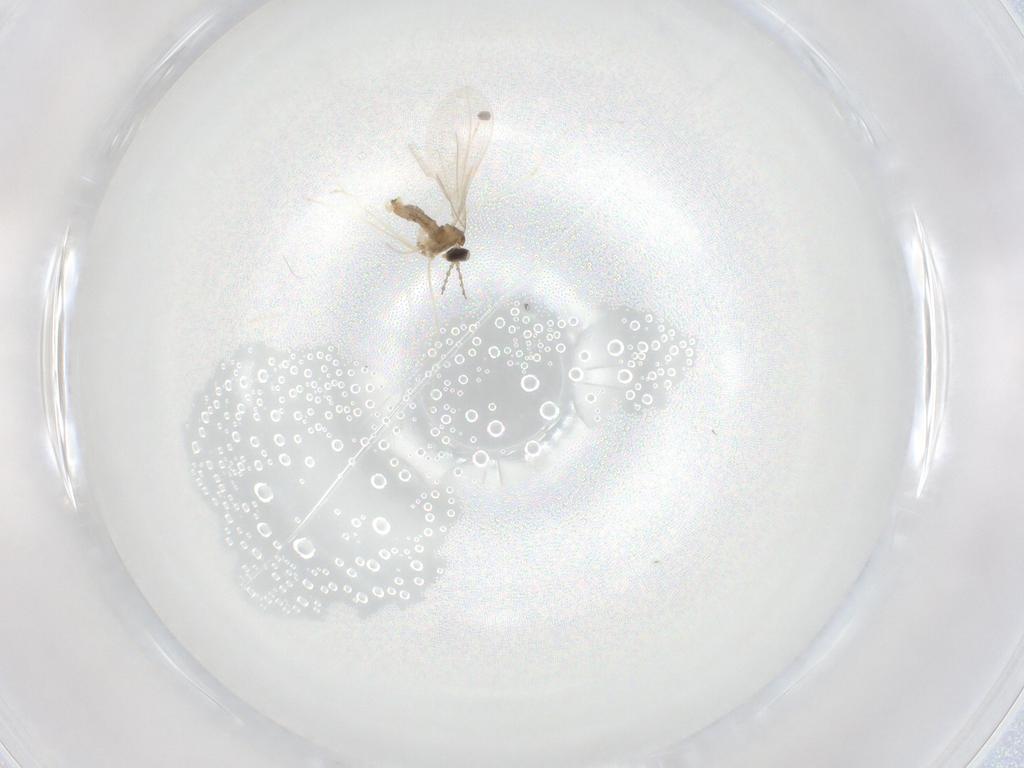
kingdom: Animalia
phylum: Arthropoda
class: Insecta
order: Diptera
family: Cecidomyiidae
